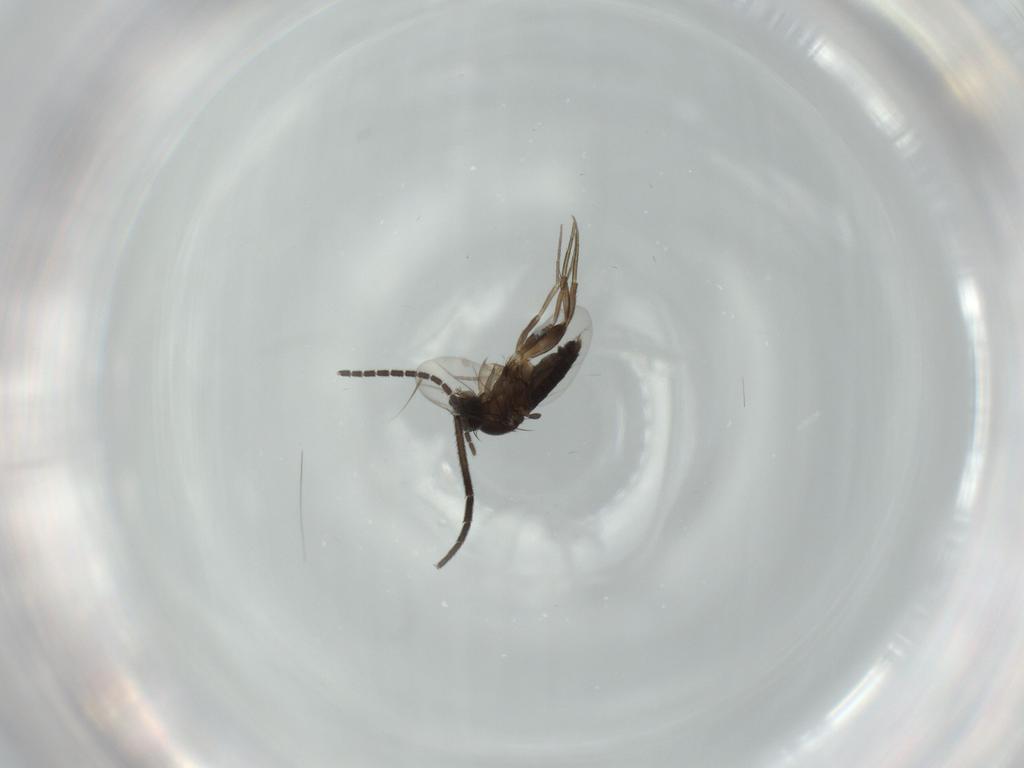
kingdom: Animalia
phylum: Arthropoda
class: Insecta
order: Diptera
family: Phoridae
